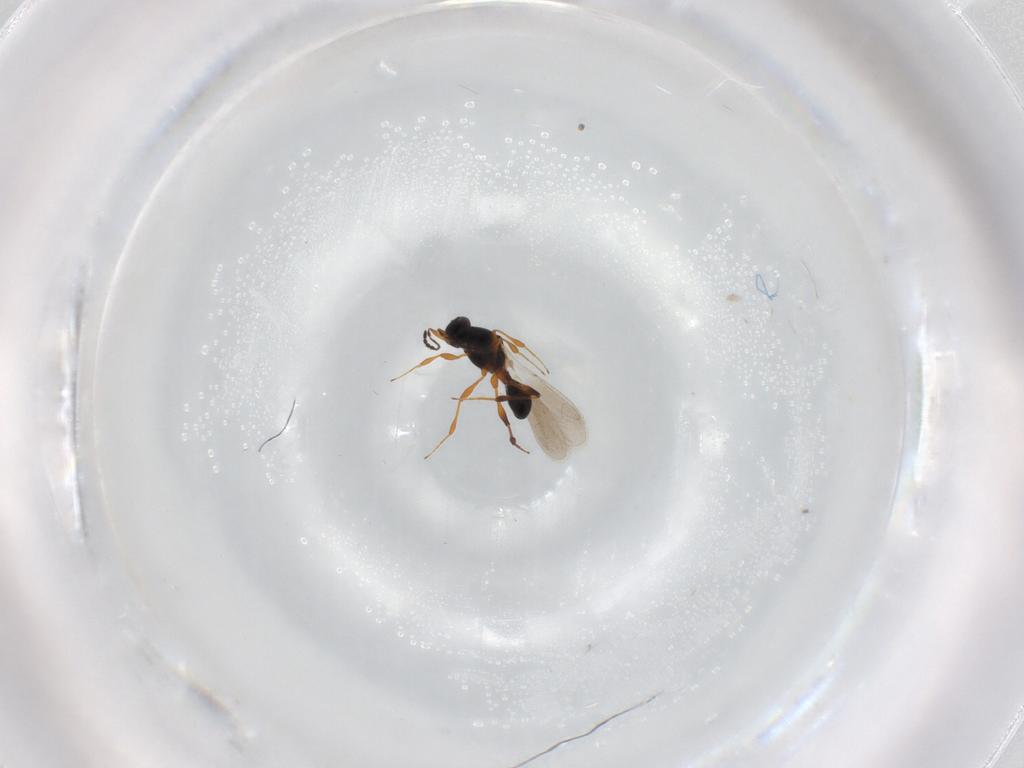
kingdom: Animalia
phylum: Arthropoda
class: Insecta
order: Hymenoptera
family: Platygastridae
